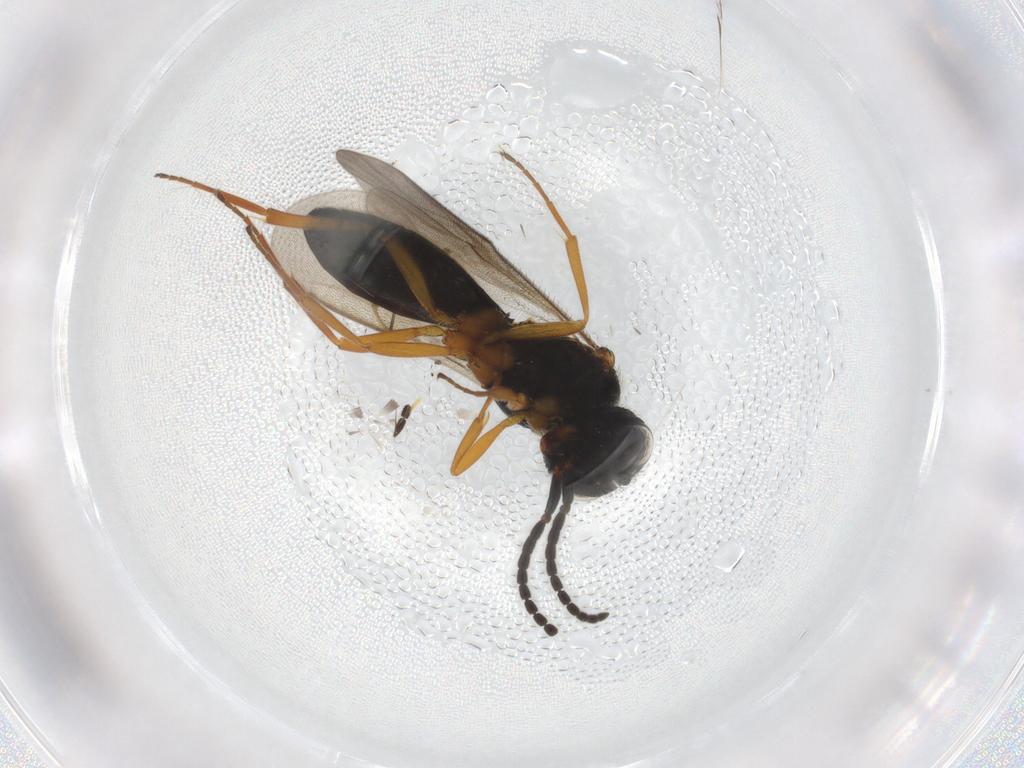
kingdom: Animalia
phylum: Arthropoda
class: Insecta
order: Hymenoptera
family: Scelionidae
